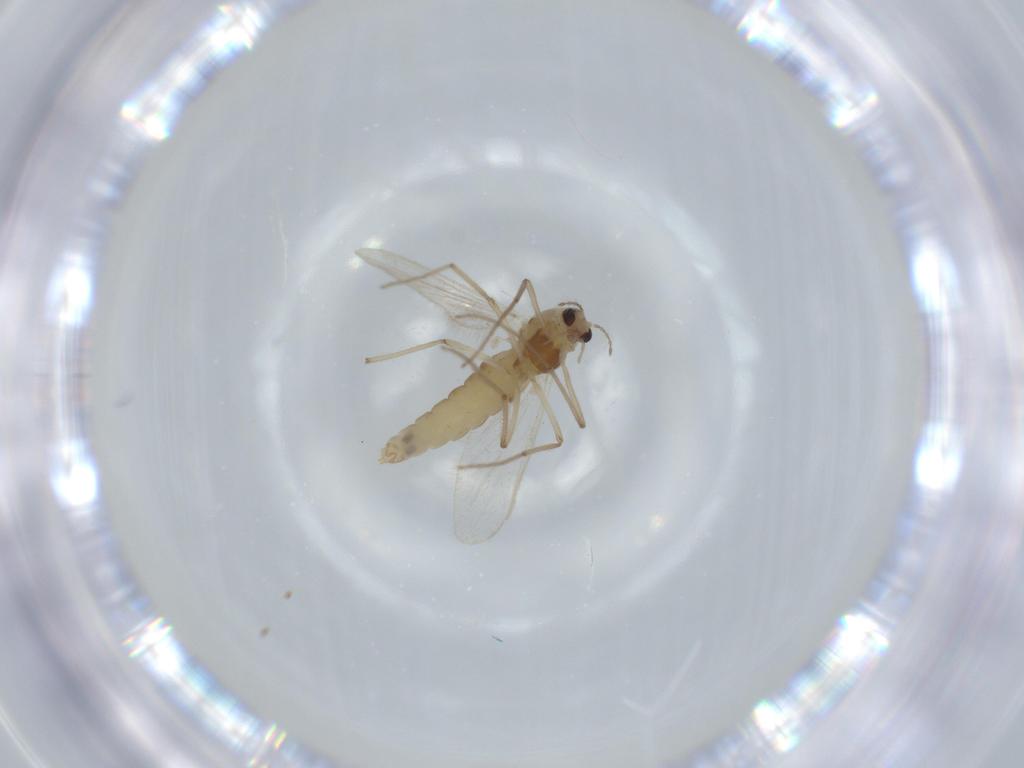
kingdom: Animalia
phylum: Arthropoda
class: Insecta
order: Diptera
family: Chironomidae
